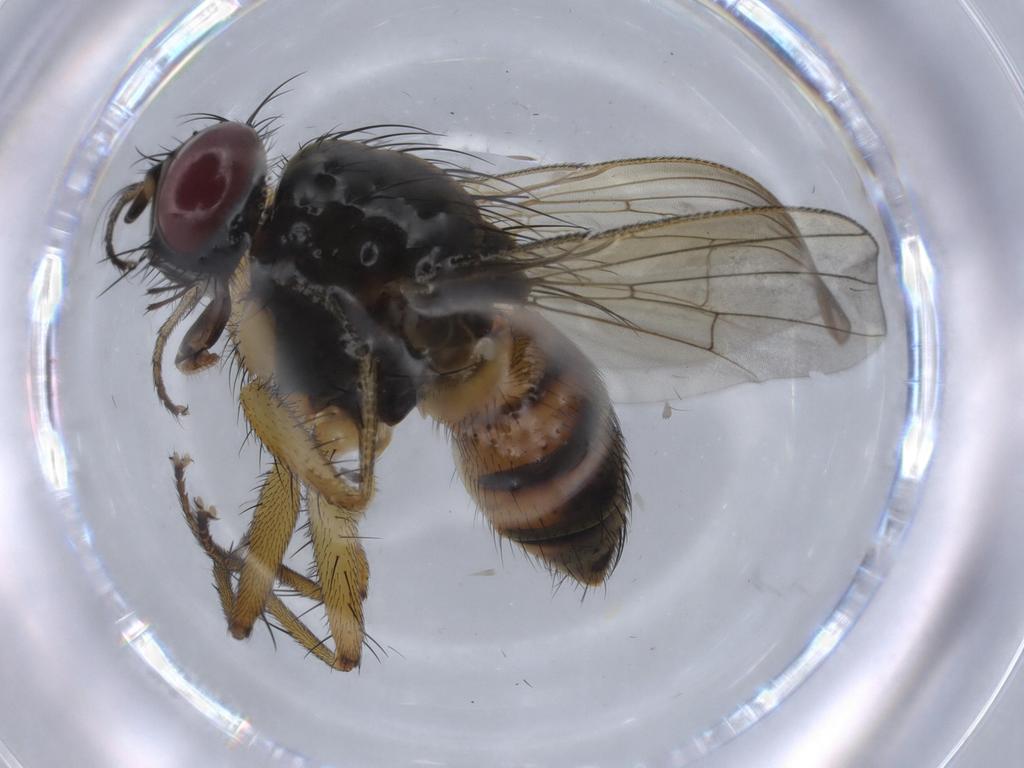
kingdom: Animalia
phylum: Arthropoda
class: Insecta
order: Diptera
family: Muscidae
